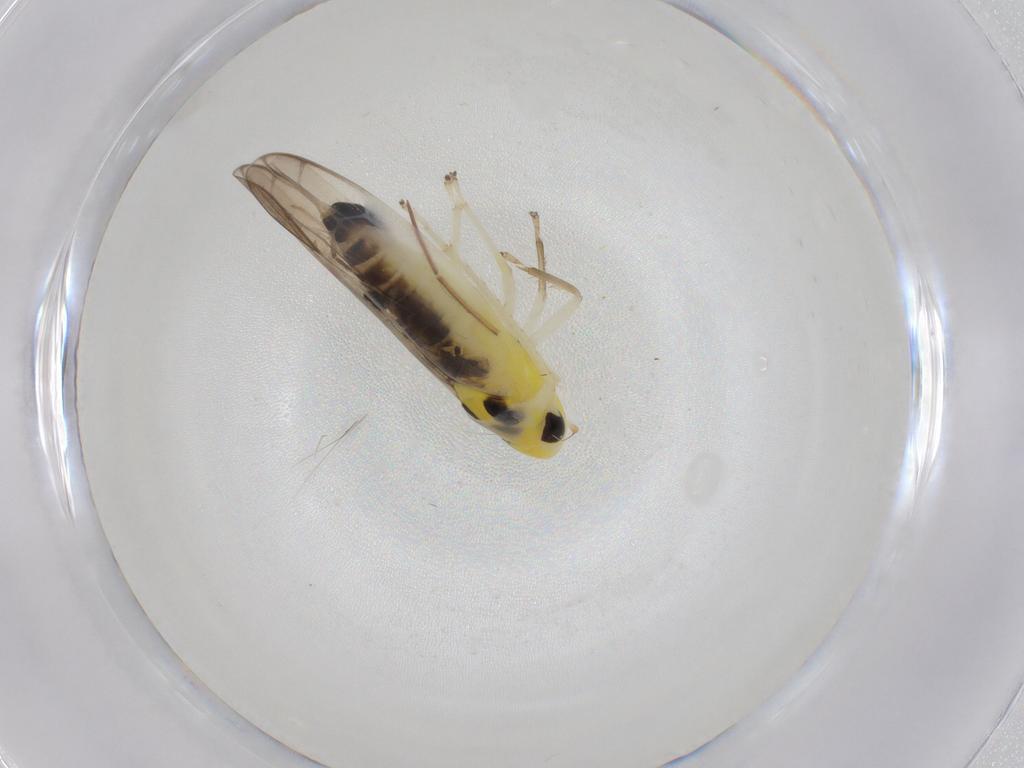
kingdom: Animalia
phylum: Arthropoda
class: Insecta
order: Hemiptera
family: Cicadellidae
